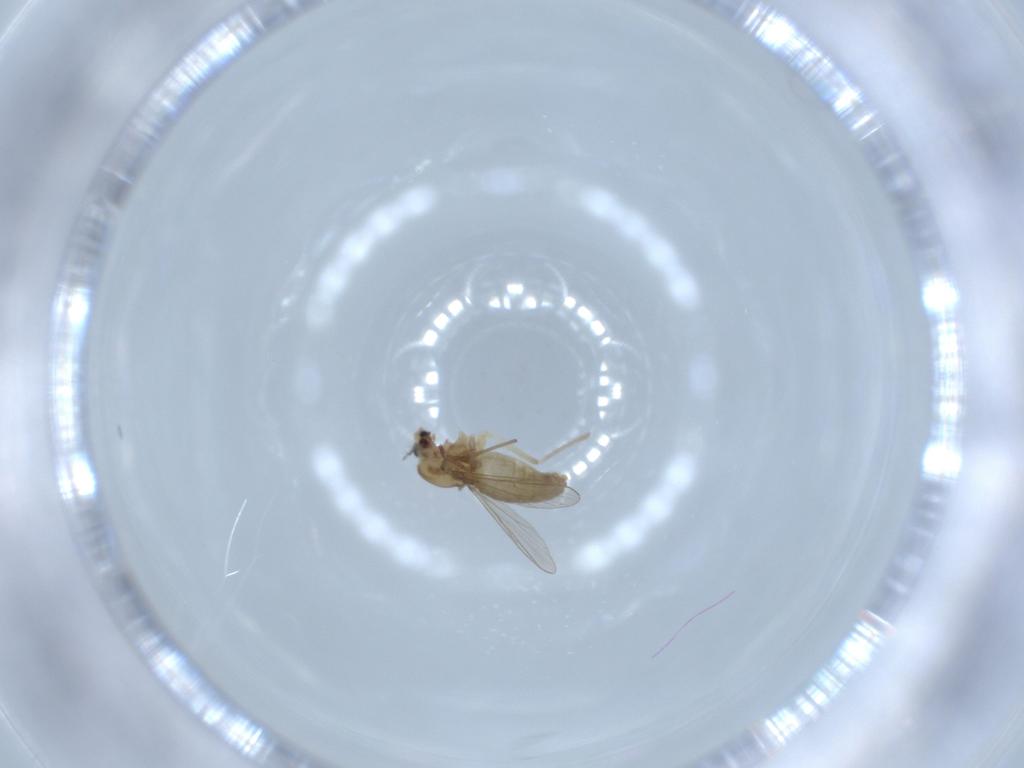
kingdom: Animalia
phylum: Arthropoda
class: Insecta
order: Diptera
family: Chironomidae
